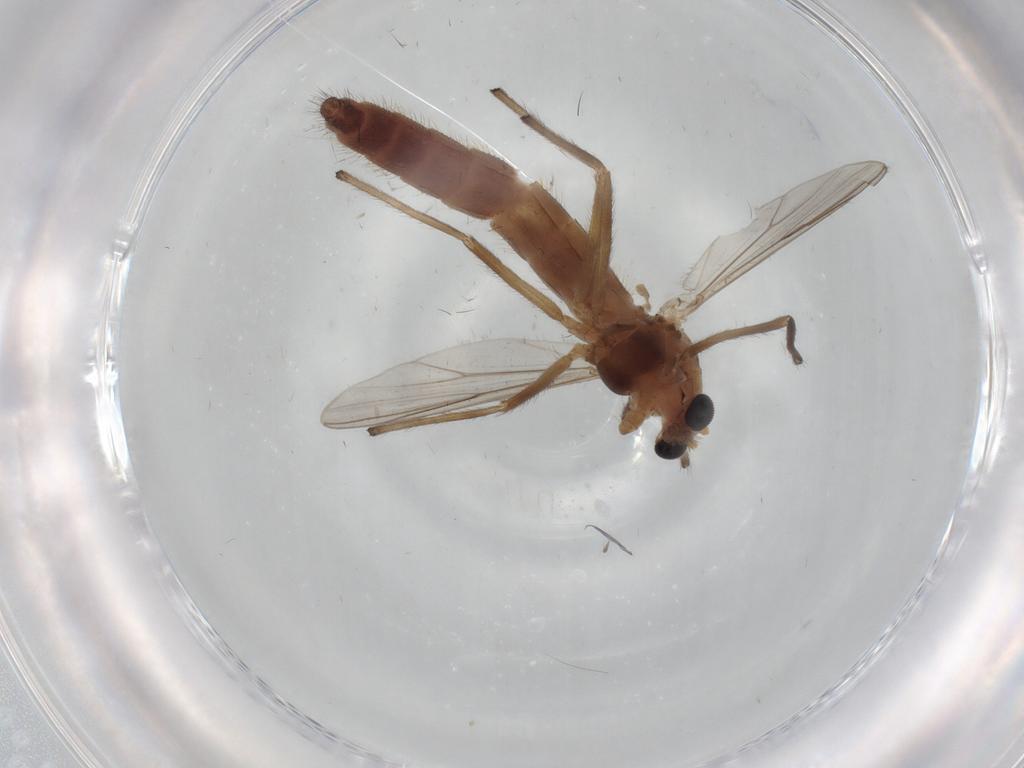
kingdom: Animalia
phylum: Arthropoda
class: Insecta
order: Diptera
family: Chironomidae
